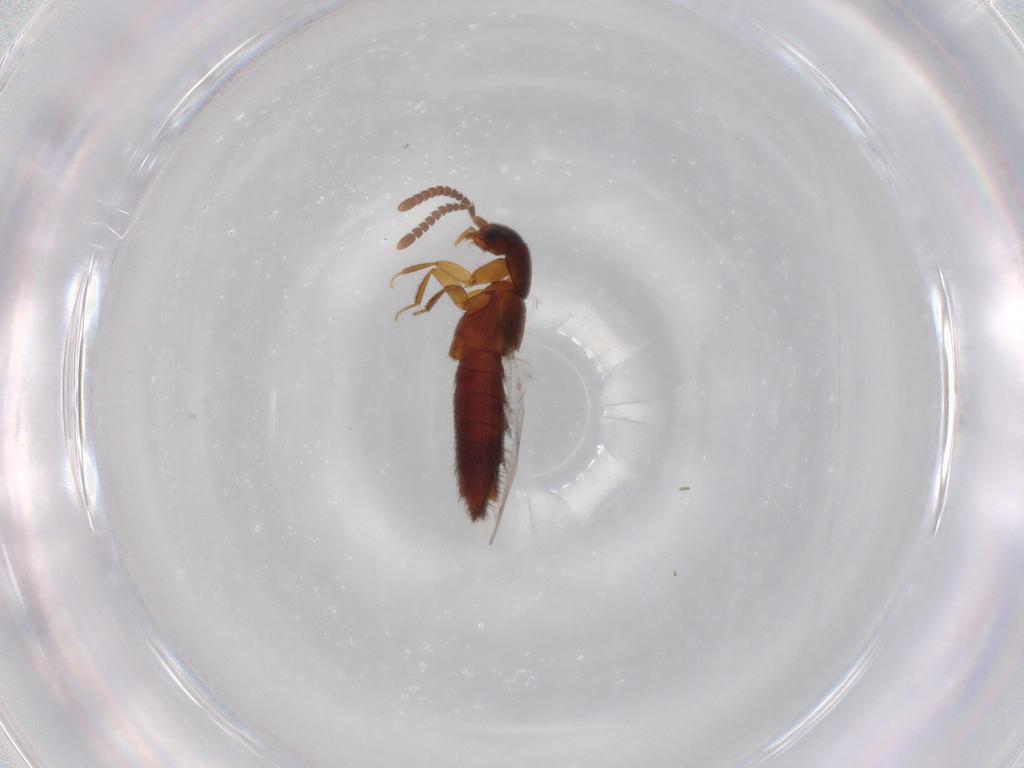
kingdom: Animalia
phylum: Arthropoda
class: Insecta
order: Coleoptera
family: Staphylinidae
